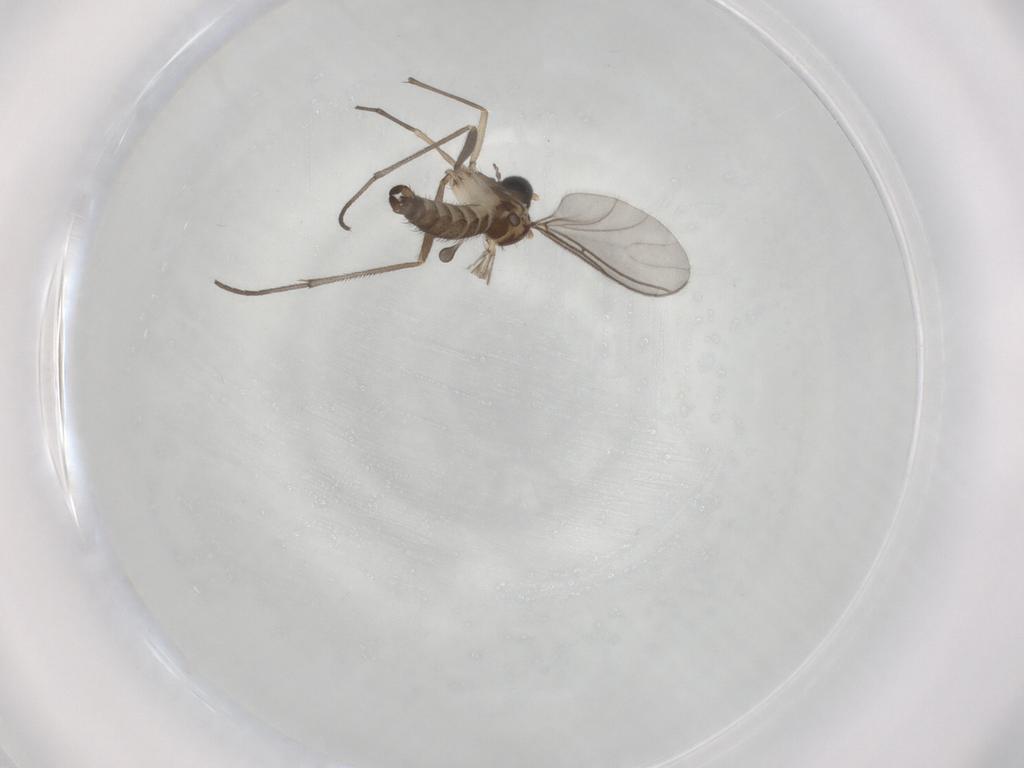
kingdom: Animalia
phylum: Arthropoda
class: Insecta
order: Diptera
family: Sciaridae
